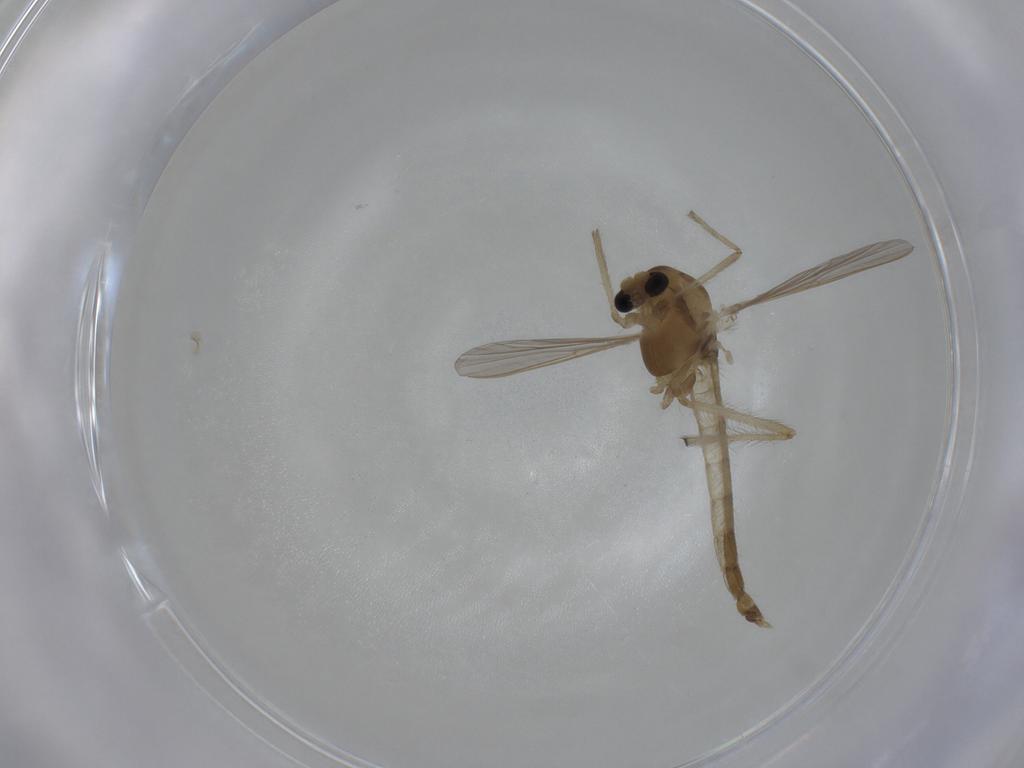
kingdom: Animalia
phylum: Arthropoda
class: Insecta
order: Diptera
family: Chironomidae
